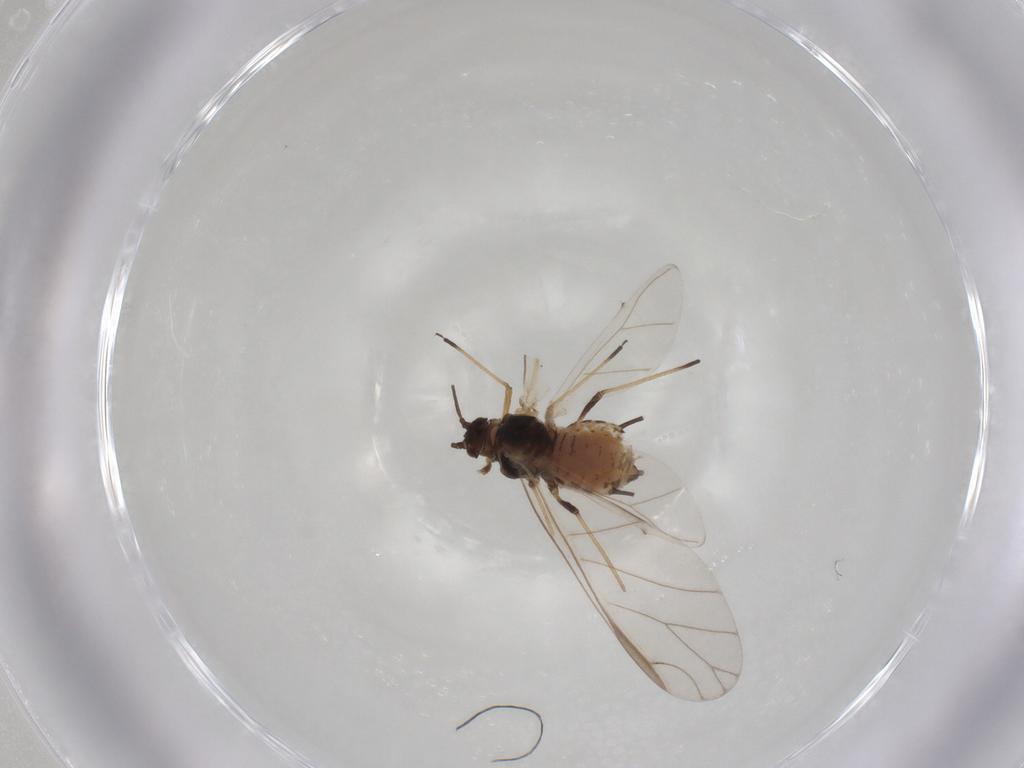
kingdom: Animalia
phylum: Arthropoda
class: Insecta
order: Hemiptera
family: Aphididae
